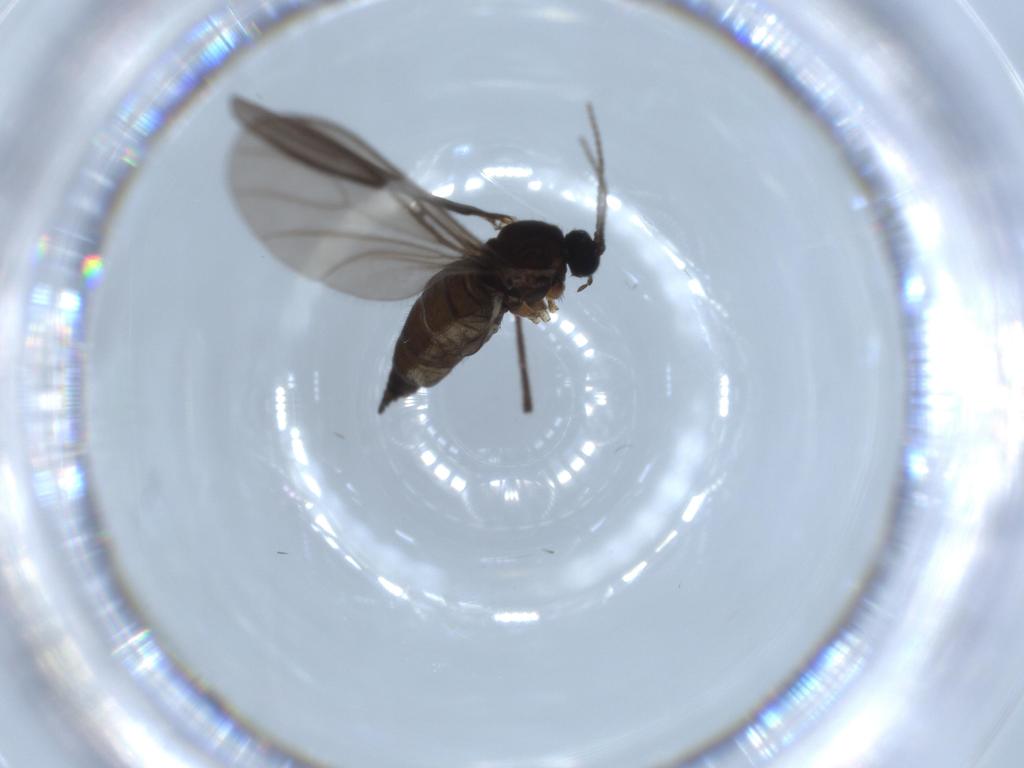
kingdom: Animalia
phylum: Arthropoda
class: Insecta
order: Diptera
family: Sciaridae
